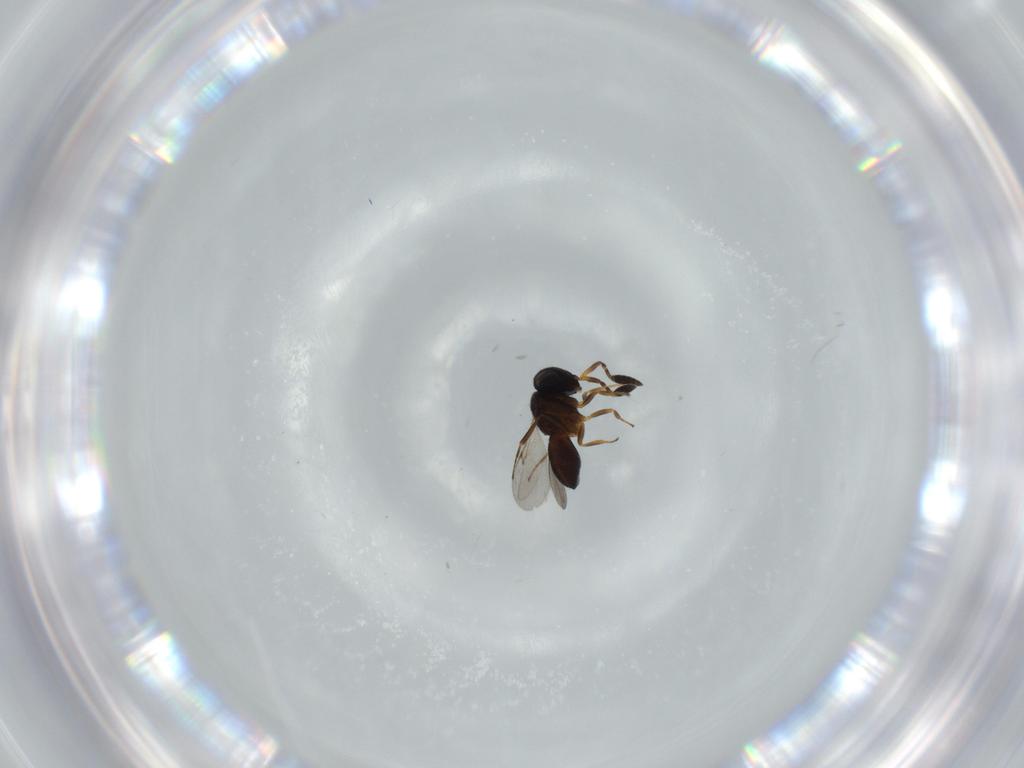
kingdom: Animalia
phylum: Arthropoda
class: Insecta
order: Hymenoptera
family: Scelionidae
